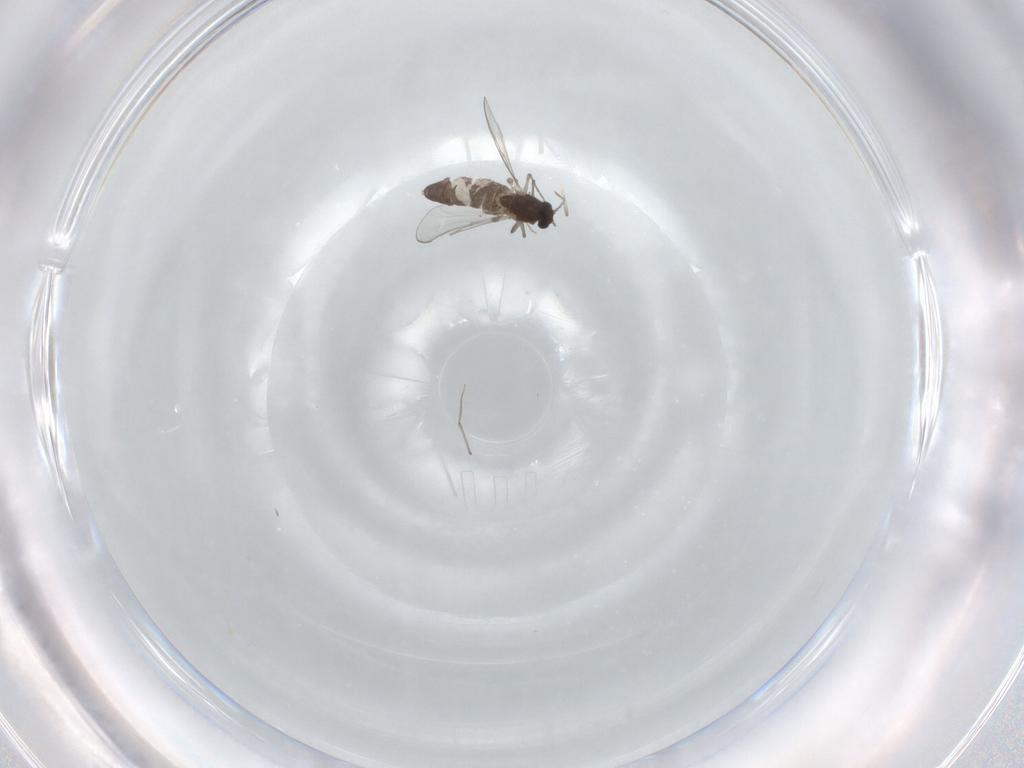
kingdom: Animalia
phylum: Arthropoda
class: Insecta
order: Diptera
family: Chironomidae
